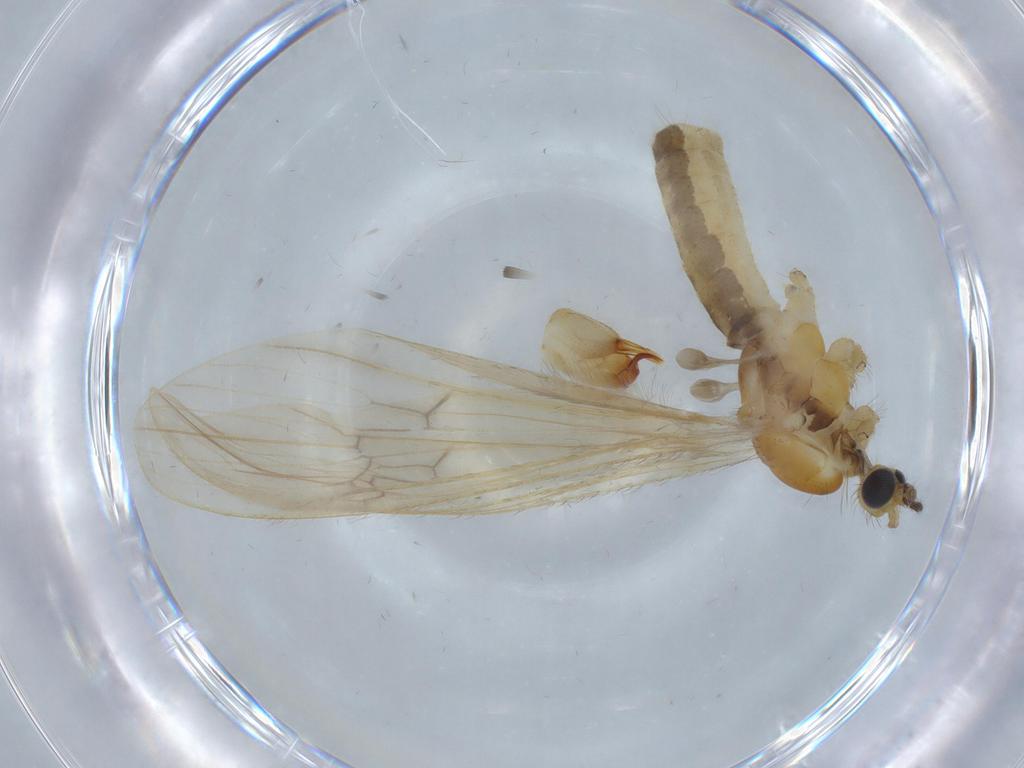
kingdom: Animalia
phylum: Arthropoda
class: Insecta
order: Diptera
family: Limoniidae
